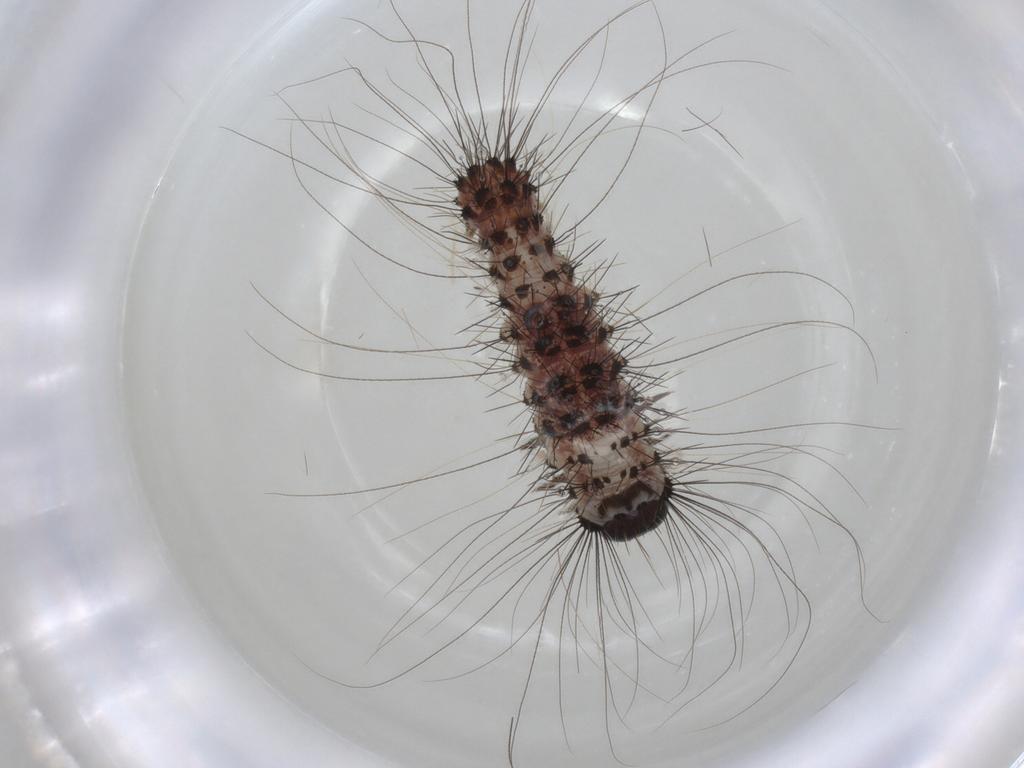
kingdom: Animalia
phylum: Arthropoda
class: Insecta
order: Lepidoptera
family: Erebidae
